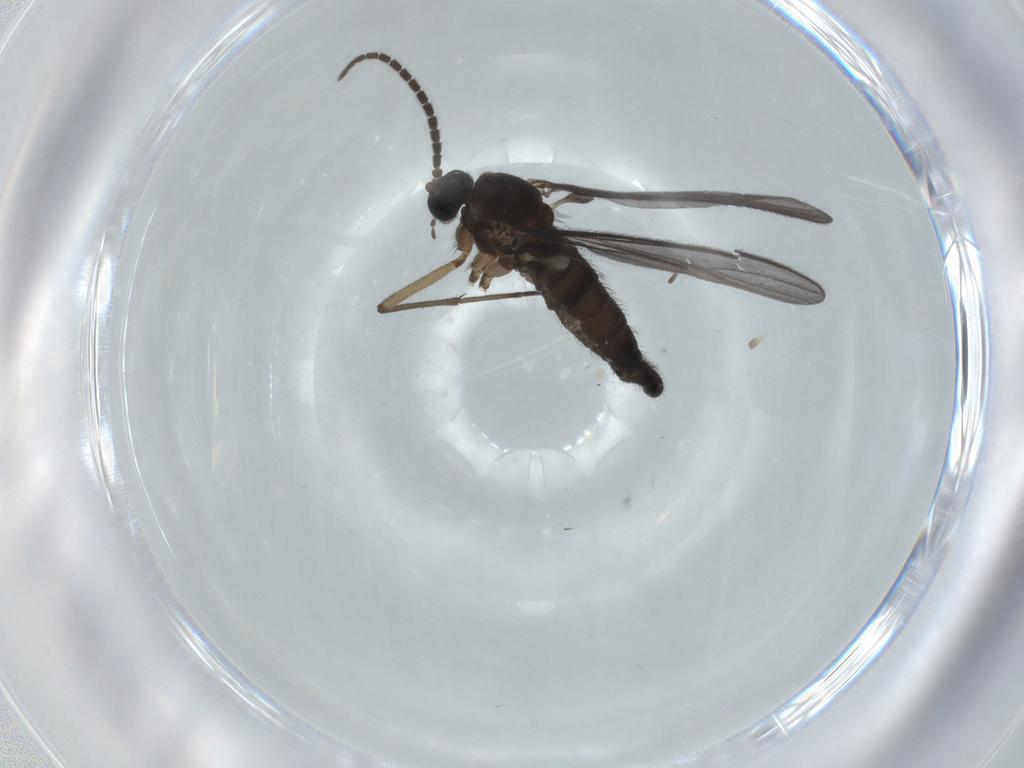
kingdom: Animalia
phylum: Arthropoda
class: Insecta
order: Diptera
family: Sciaridae
